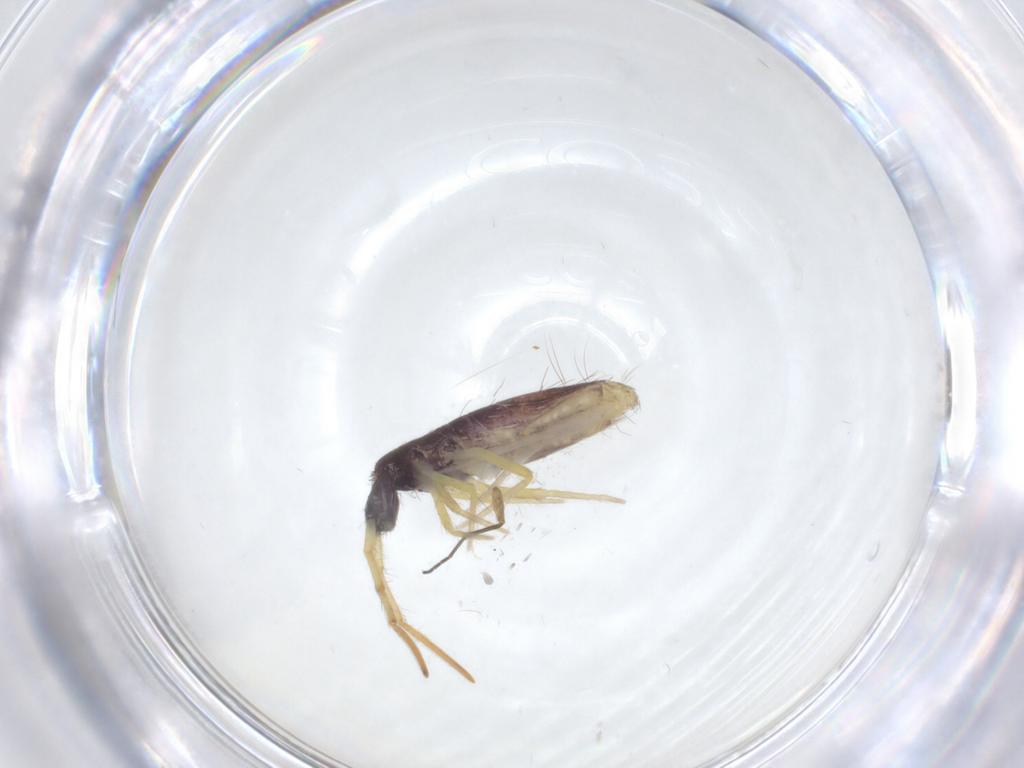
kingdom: Animalia
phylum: Arthropoda
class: Collembola
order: Entomobryomorpha
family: Entomobryidae
